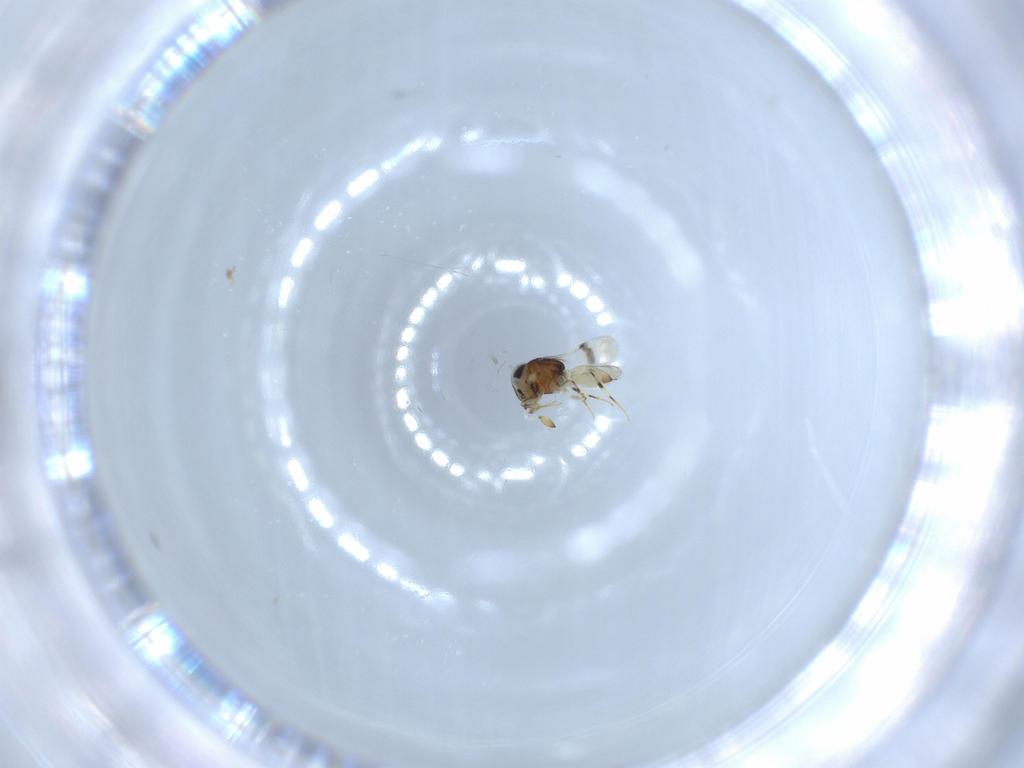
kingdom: Animalia
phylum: Arthropoda
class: Insecta
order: Hymenoptera
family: Scelionidae
